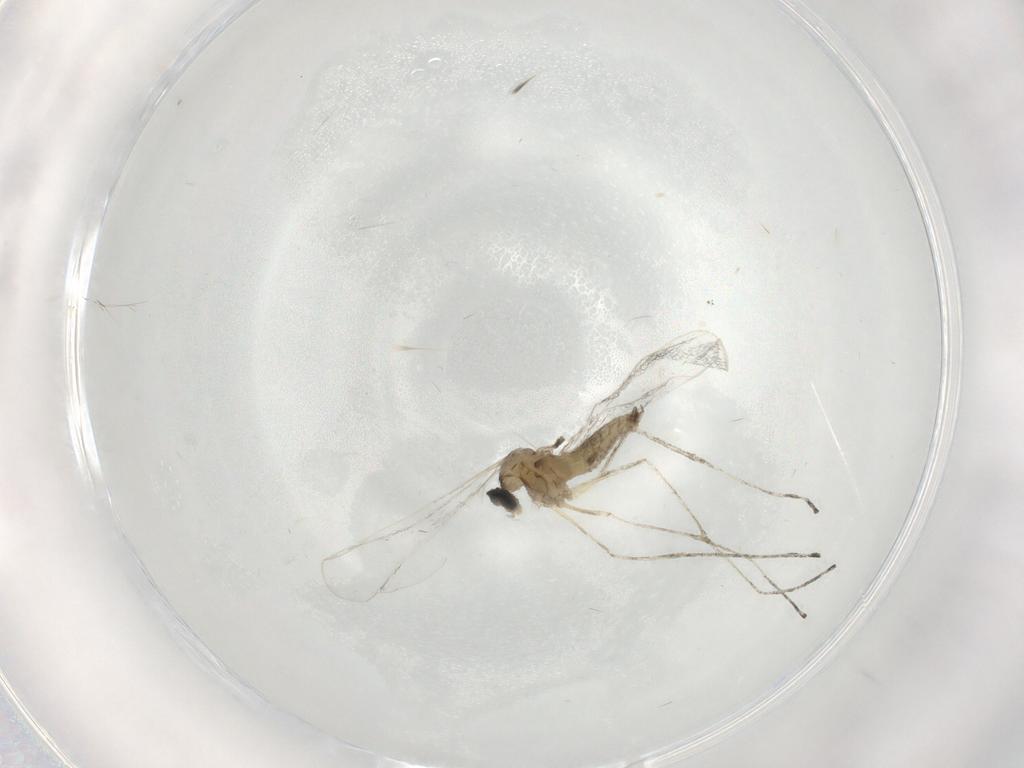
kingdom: Animalia
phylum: Arthropoda
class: Insecta
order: Diptera
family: Cecidomyiidae
